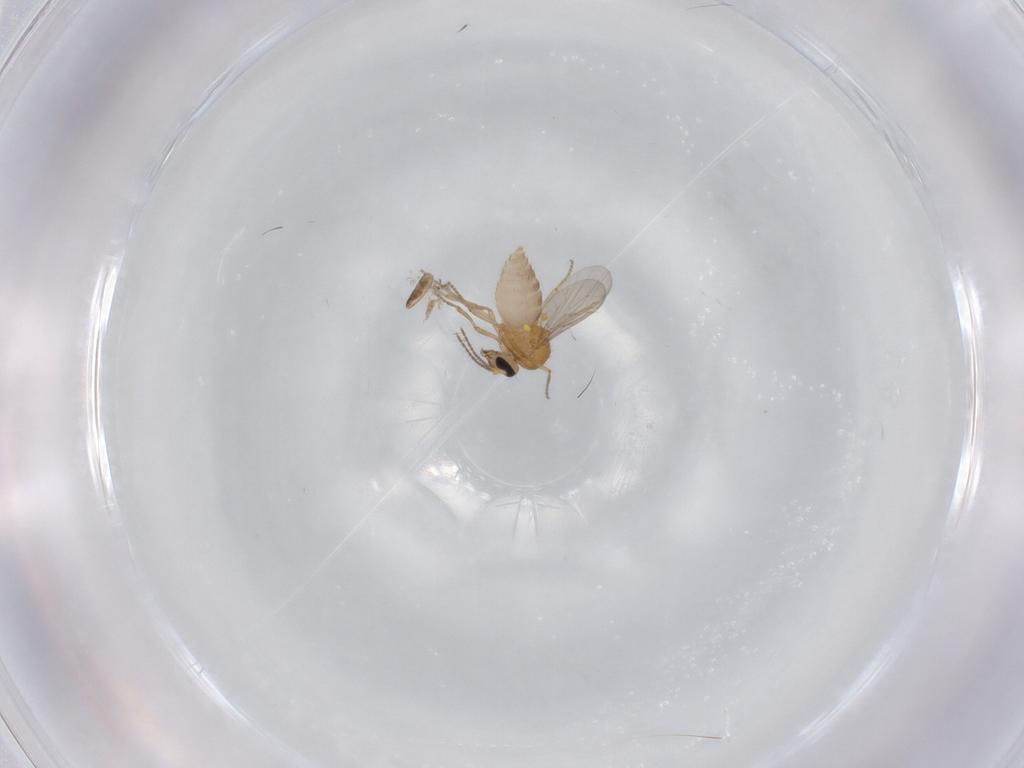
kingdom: Animalia
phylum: Arthropoda
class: Insecta
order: Diptera
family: Ceratopogonidae
